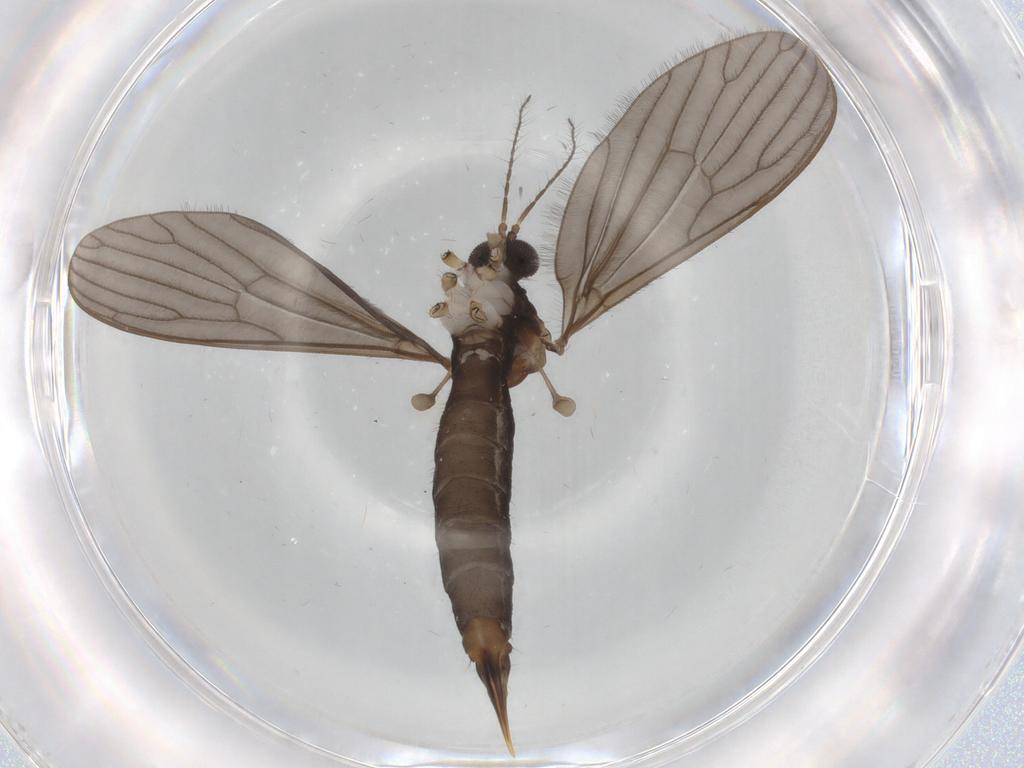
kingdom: Animalia
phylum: Arthropoda
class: Insecta
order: Diptera
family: Limoniidae
